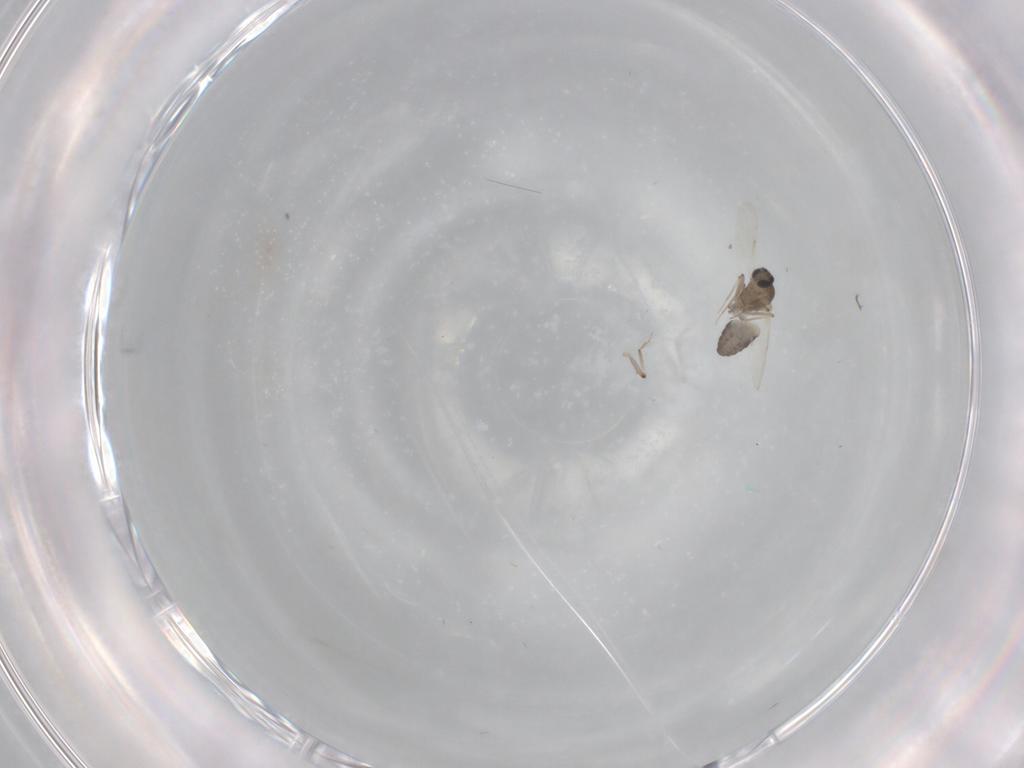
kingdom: Animalia
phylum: Arthropoda
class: Insecta
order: Diptera
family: Ceratopogonidae
